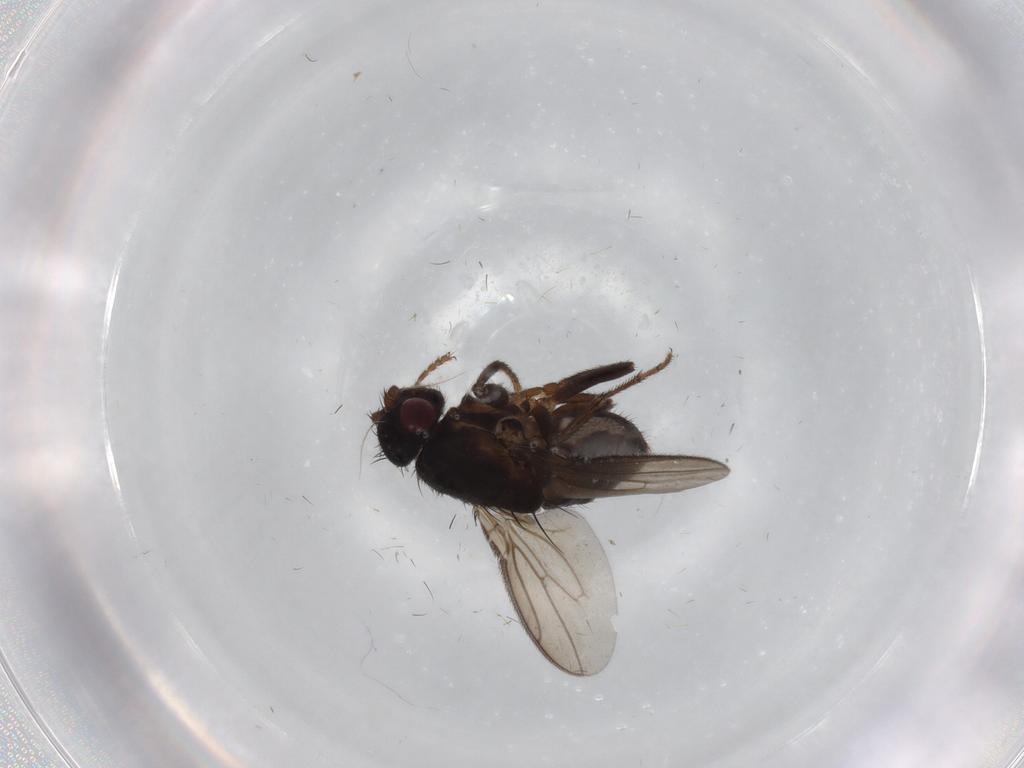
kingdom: Animalia
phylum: Arthropoda
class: Insecta
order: Diptera
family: Sphaeroceridae
